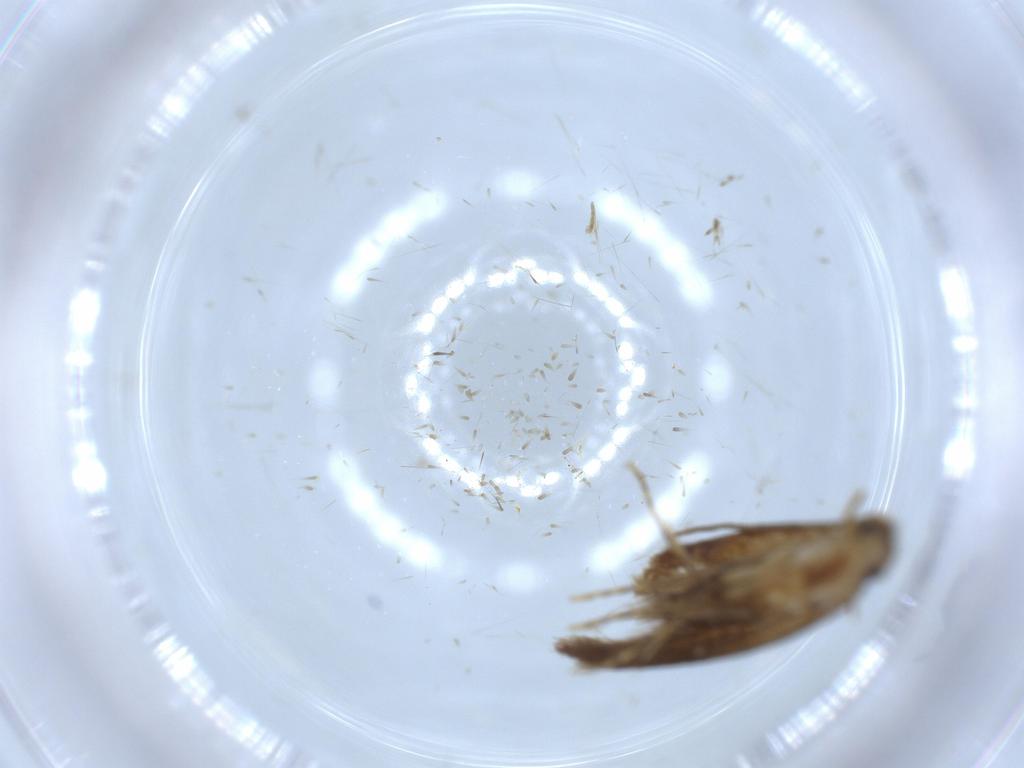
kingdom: Animalia
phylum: Arthropoda
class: Insecta
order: Lepidoptera
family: Tineidae
